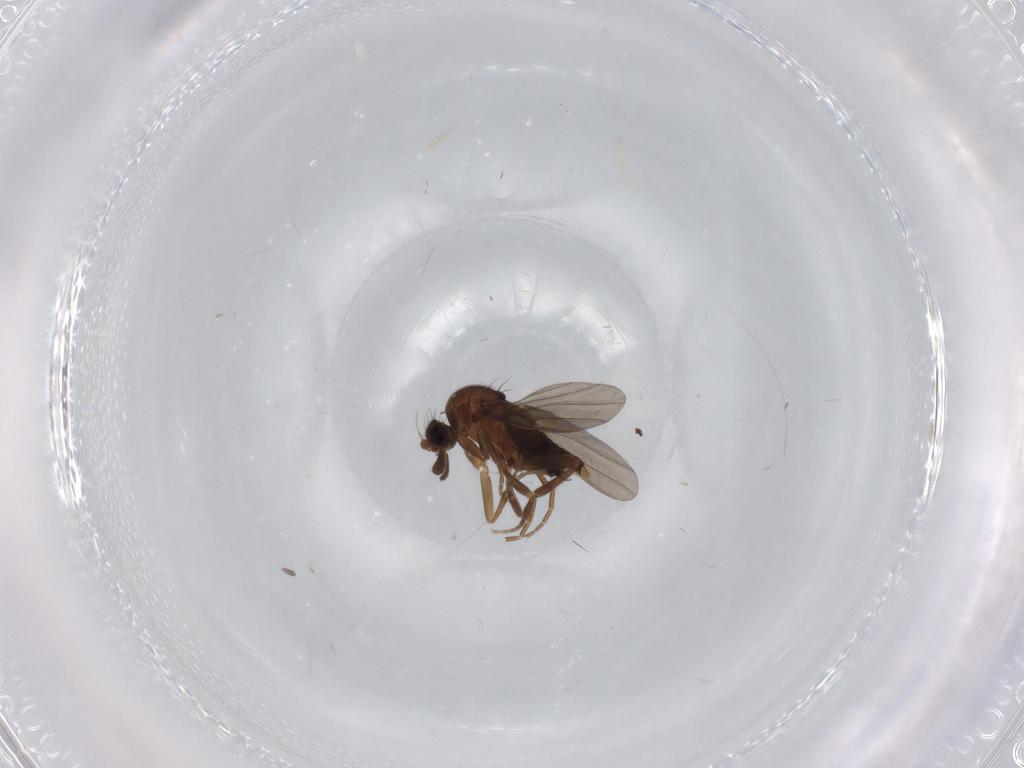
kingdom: Animalia
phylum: Arthropoda
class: Insecta
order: Diptera
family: Phoridae
